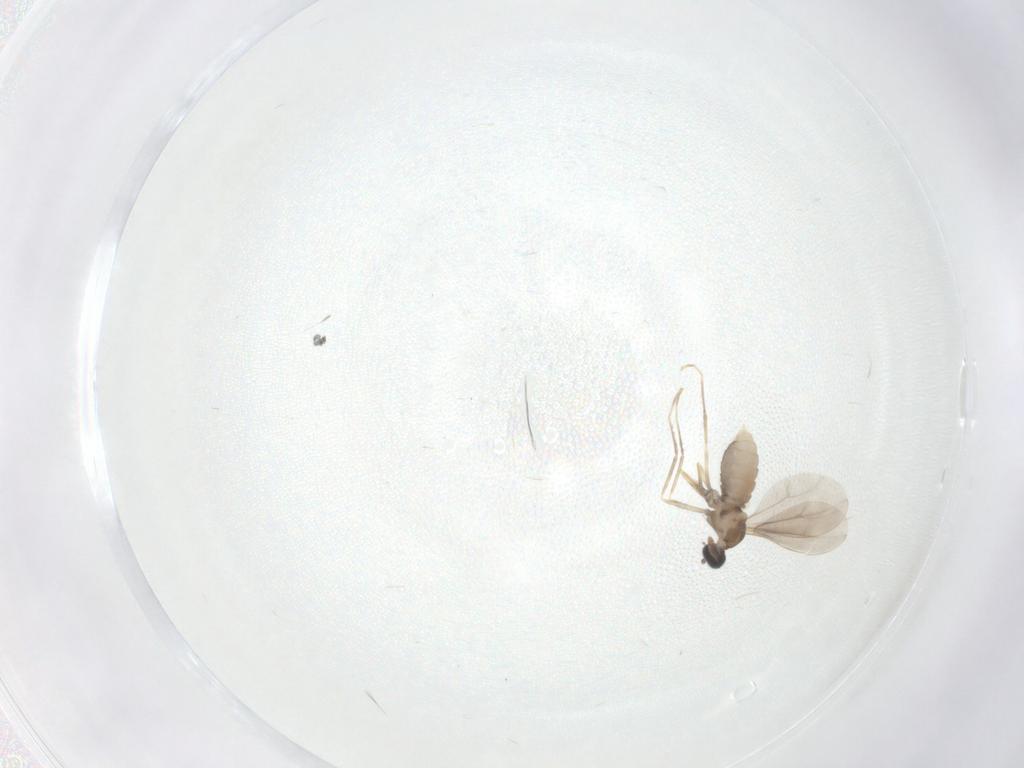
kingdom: Animalia
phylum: Arthropoda
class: Insecta
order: Diptera
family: Cecidomyiidae
